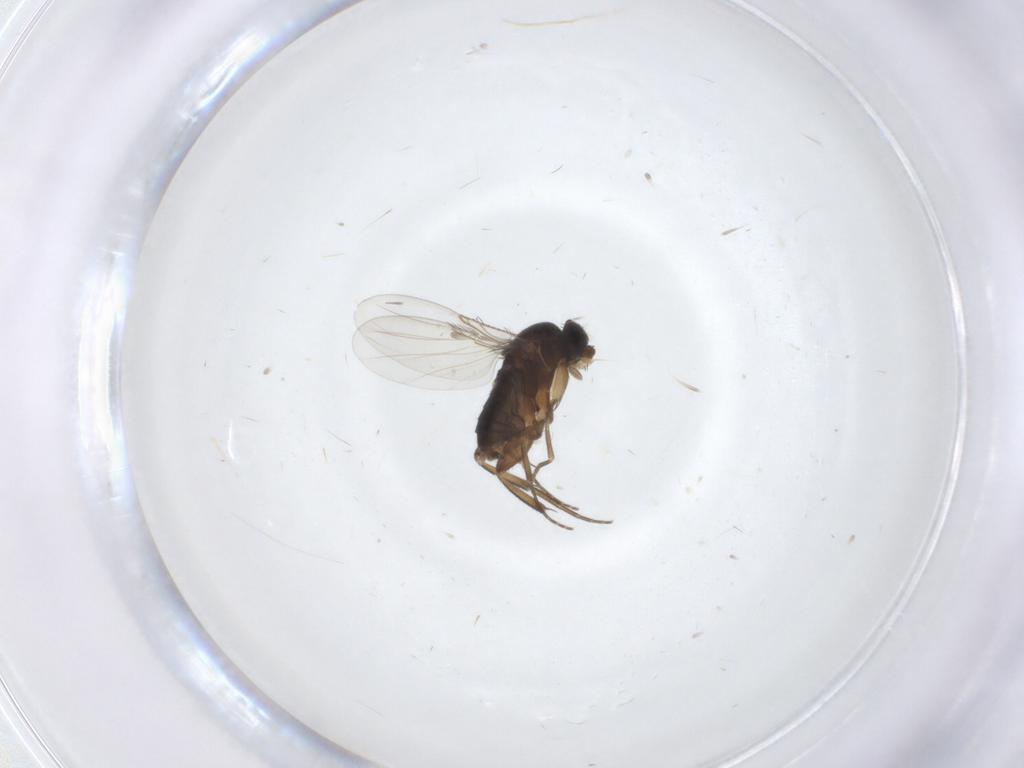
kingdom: Animalia
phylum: Arthropoda
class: Insecta
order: Diptera
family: Phoridae
